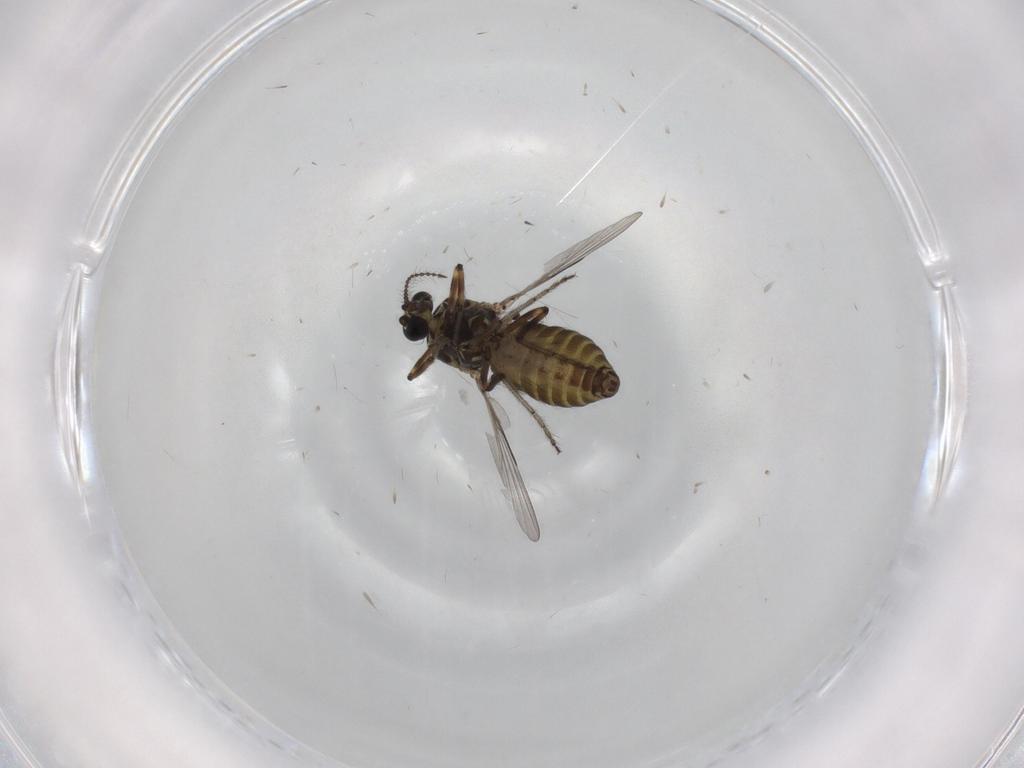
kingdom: Animalia
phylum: Arthropoda
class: Insecta
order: Diptera
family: Ceratopogonidae
